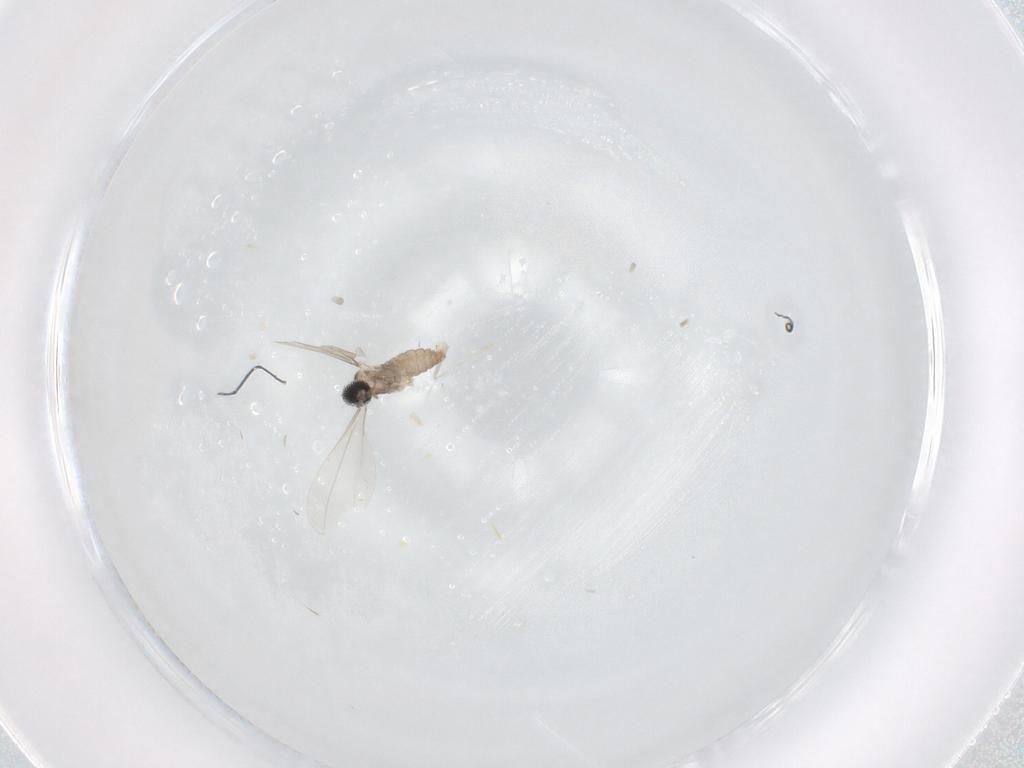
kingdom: Animalia
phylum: Arthropoda
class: Insecta
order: Diptera
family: Cecidomyiidae
